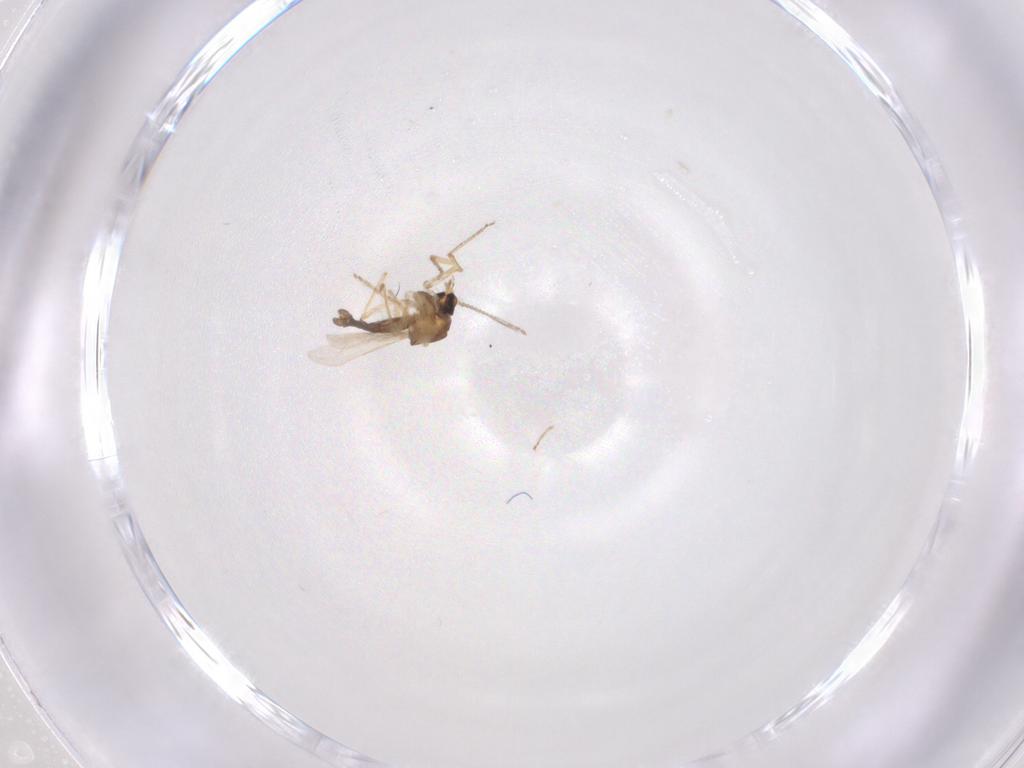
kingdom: Animalia
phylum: Arthropoda
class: Insecta
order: Diptera
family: Ceratopogonidae
